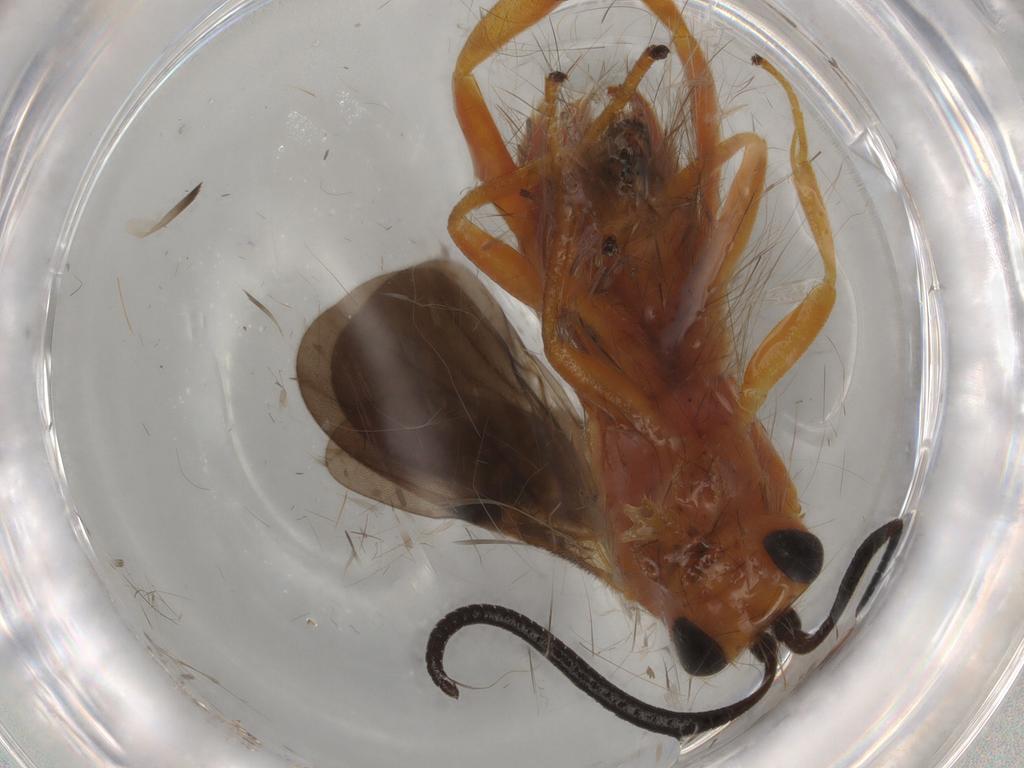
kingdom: Animalia
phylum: Arthropoda
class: Insecta
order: Hymenoptera
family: Braconidae
